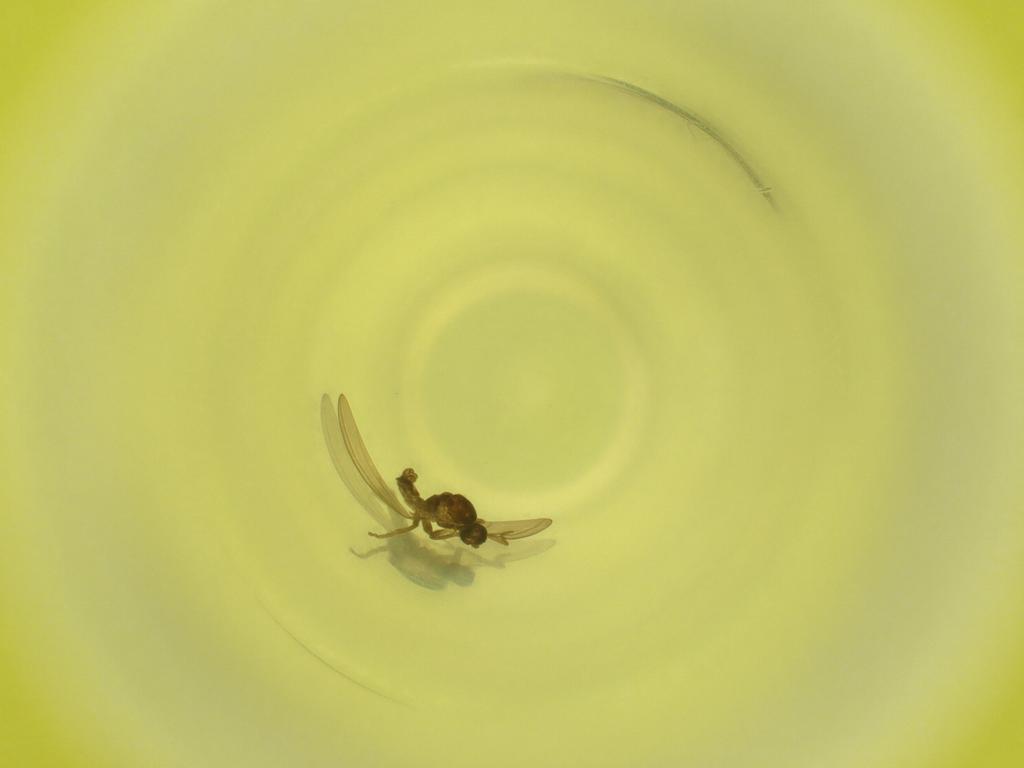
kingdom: Animalia
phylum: Arthropoda
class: Insecta
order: Diptera
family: Cecidomyiidae
